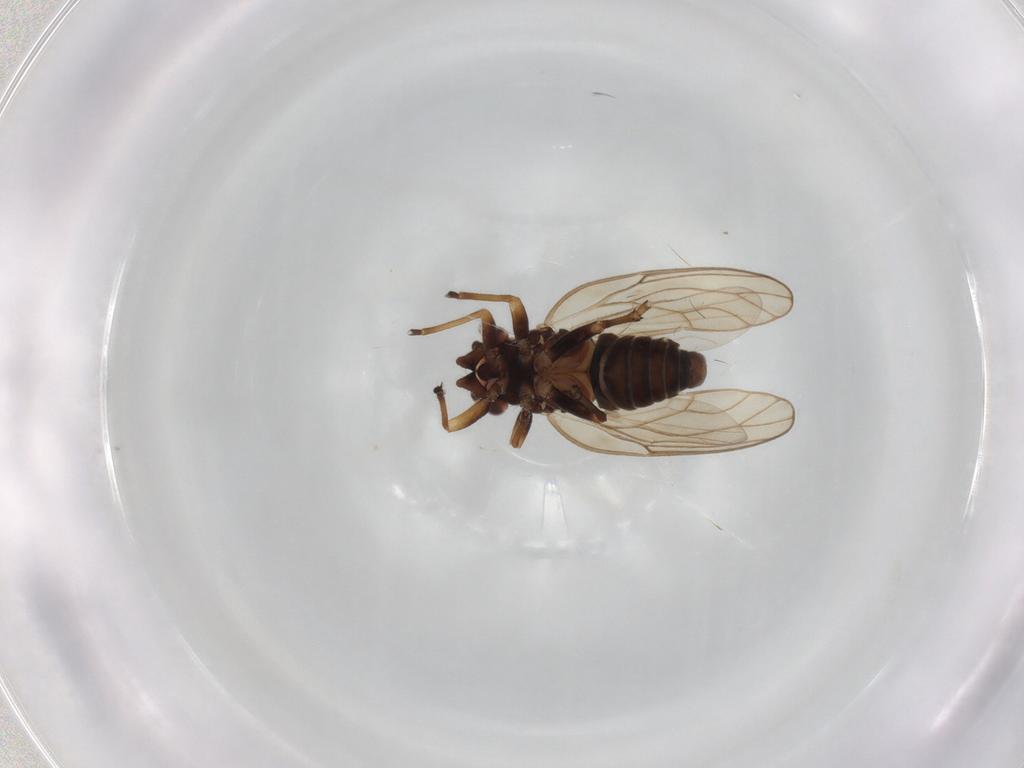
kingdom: Animalia
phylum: Arthropoda
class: Insecta
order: Hemiptera
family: Psyllidae
